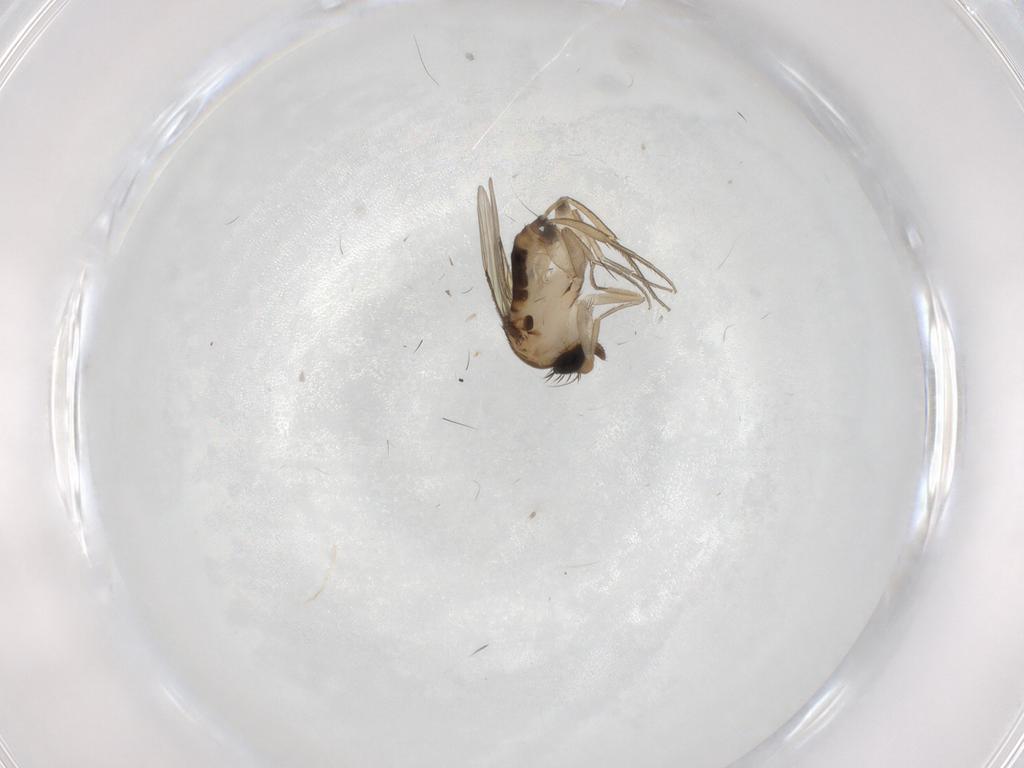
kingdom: Animalia
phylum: Arthropoda
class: Insecta
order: Diptera
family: Phoridae
